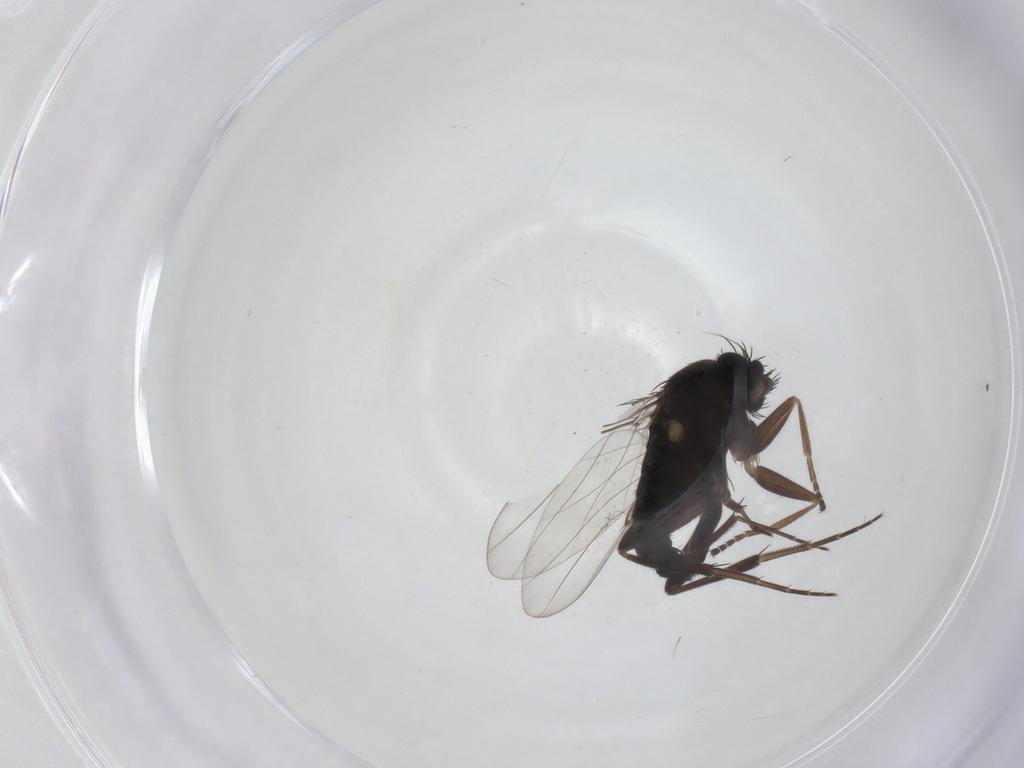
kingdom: Animalia
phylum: Arthropoda
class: Insecta
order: Diptera
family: Phoridae
